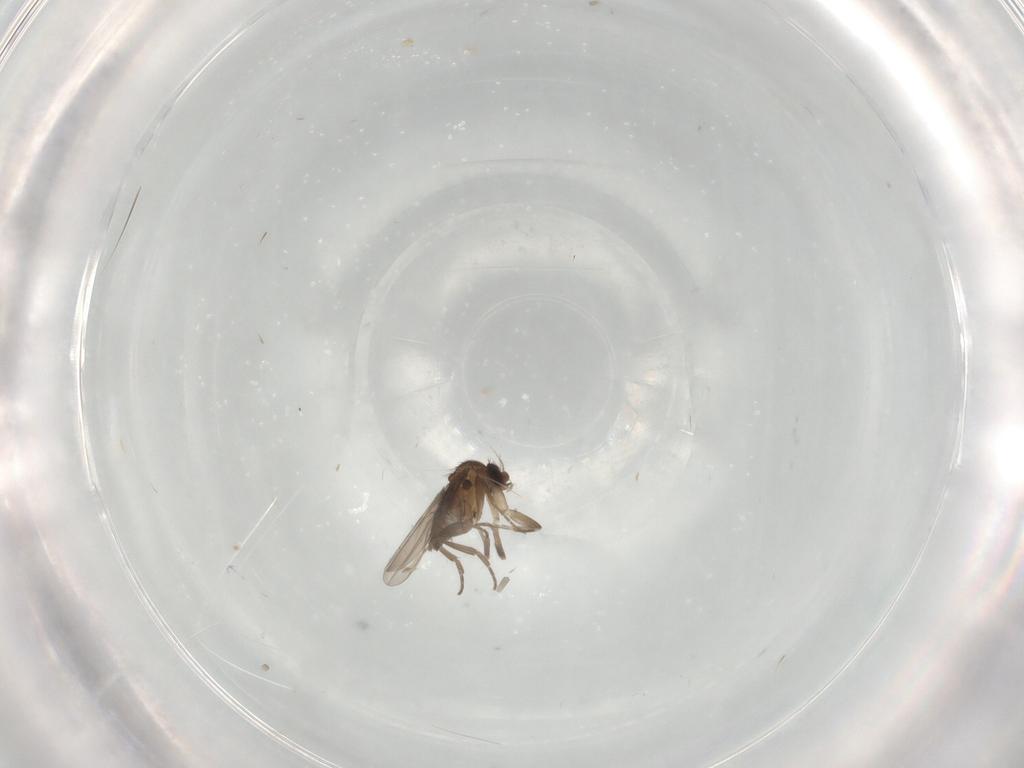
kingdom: Animalia
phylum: Arthropoda
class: Insecta
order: Diptera
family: Phoridae
